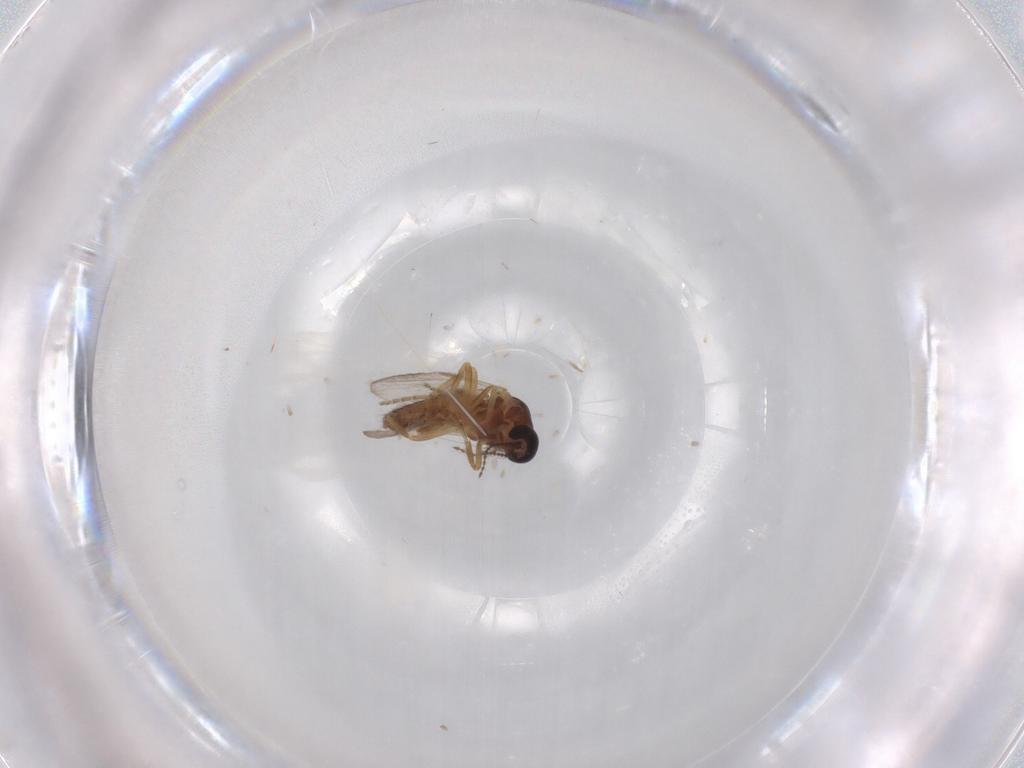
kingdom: Animalia
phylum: Arthropoda
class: Insecta
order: Diptera
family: Ceratopogonidae
